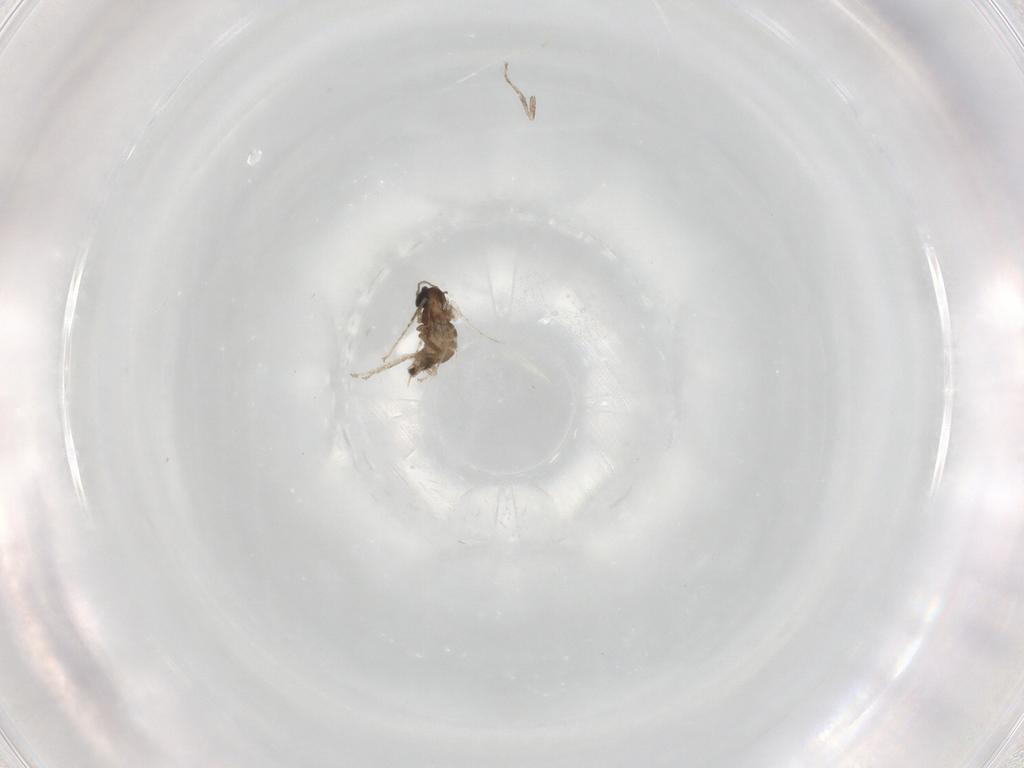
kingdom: Animalia
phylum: Arthropoda
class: Insecta
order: Diptera
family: Cecidomyiidae
